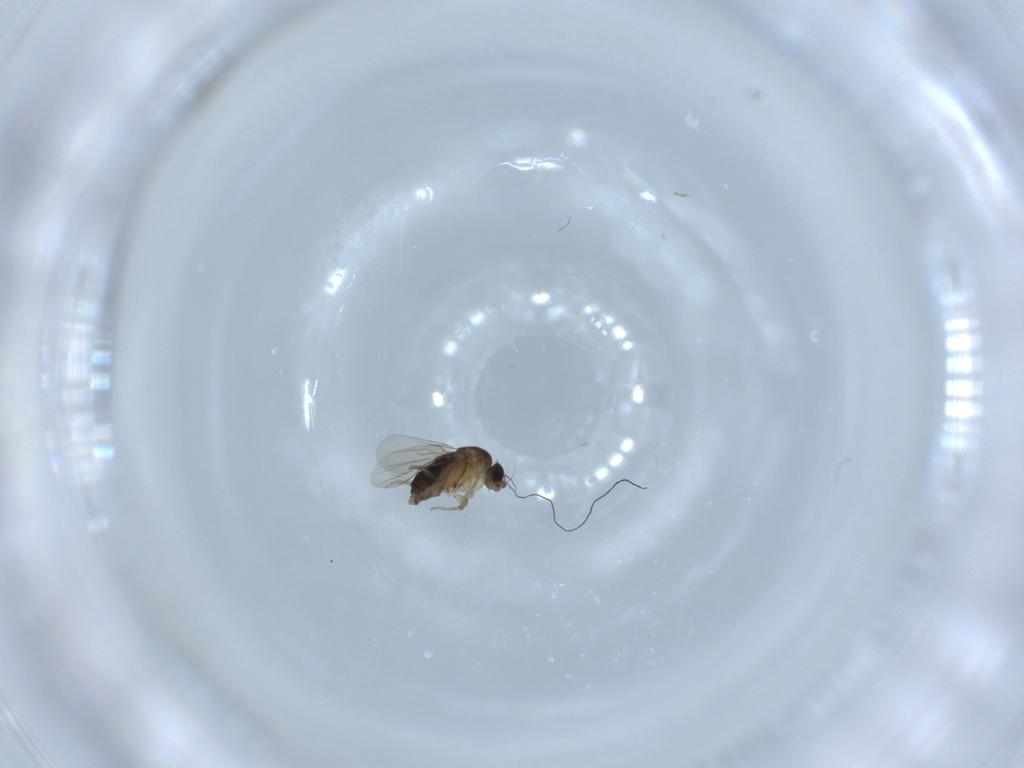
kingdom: Animalia
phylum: Arthropoda
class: Insecta
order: Diptera
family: Phoridae
